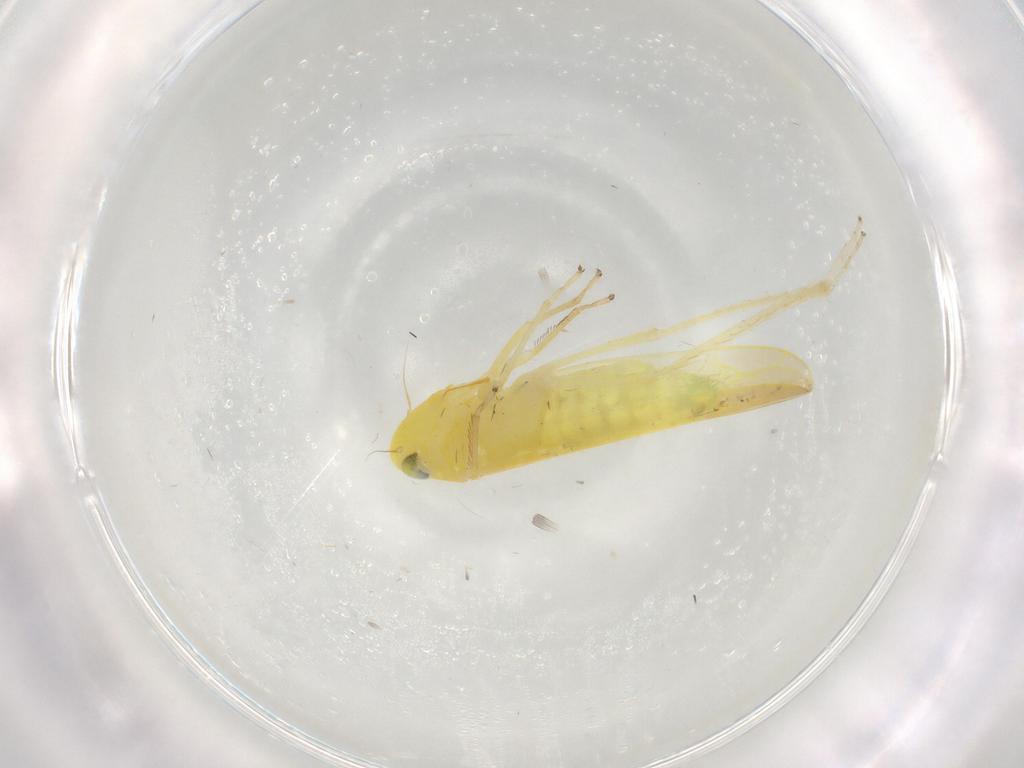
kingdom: Animalia
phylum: Arthropoda
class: Insecta
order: Hemiptera
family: Cicadellidae
